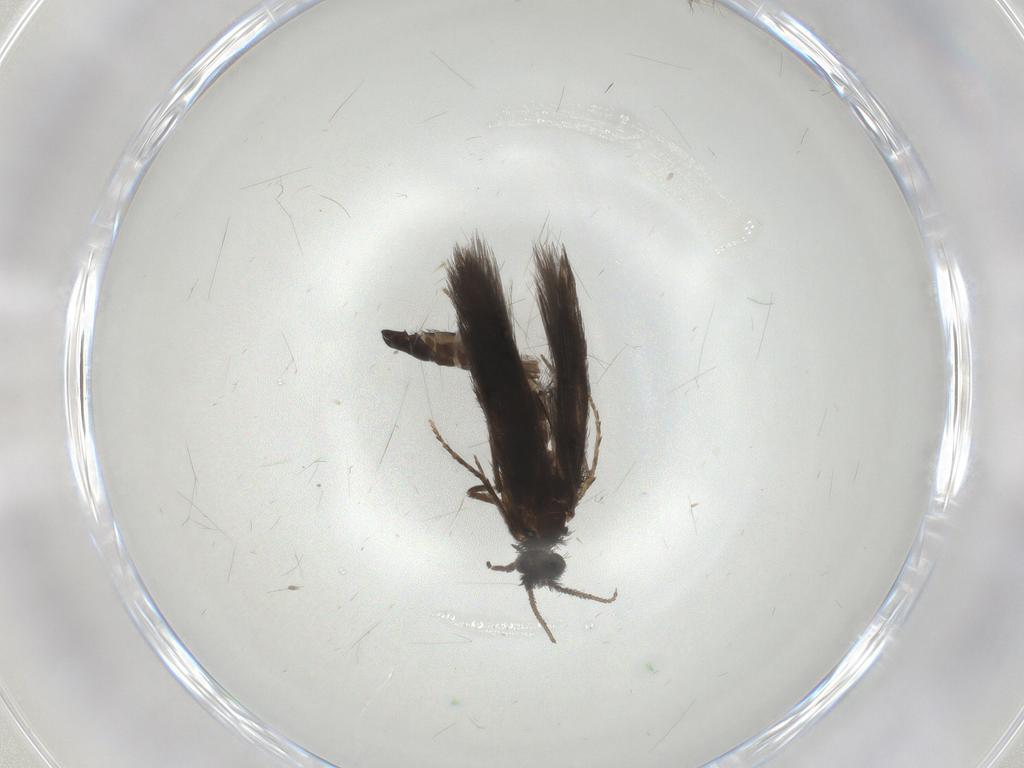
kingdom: Animalia
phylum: Arthropoda
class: Insecta
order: Trichoptera
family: Hydroptilidae
